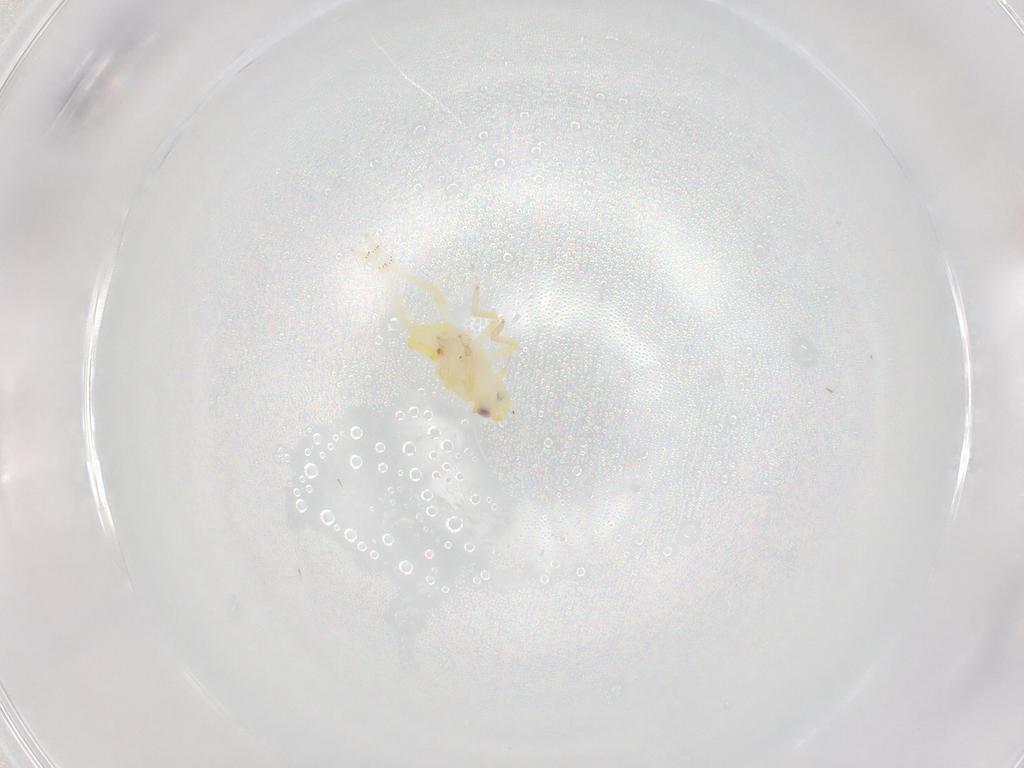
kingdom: Animalia
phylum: Arthropoda
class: Insecta
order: Hemiptera
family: Tropiduchidae
